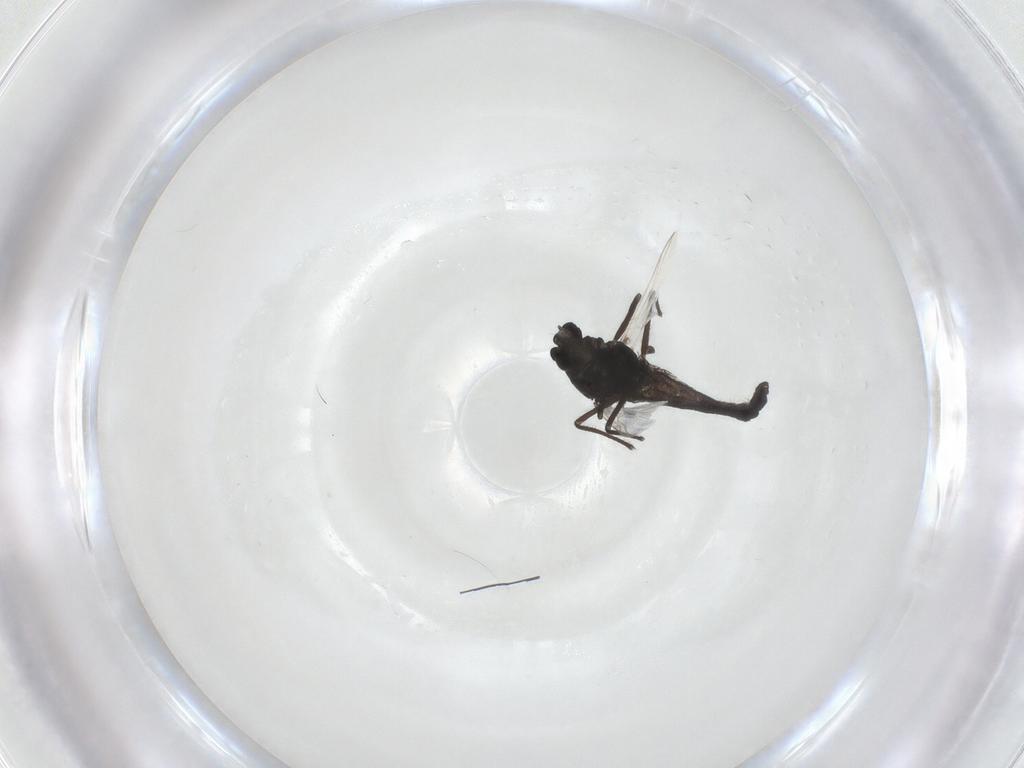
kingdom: Animalia
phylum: Arthropoda
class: Insecta
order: Diptera
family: Chironomidae
